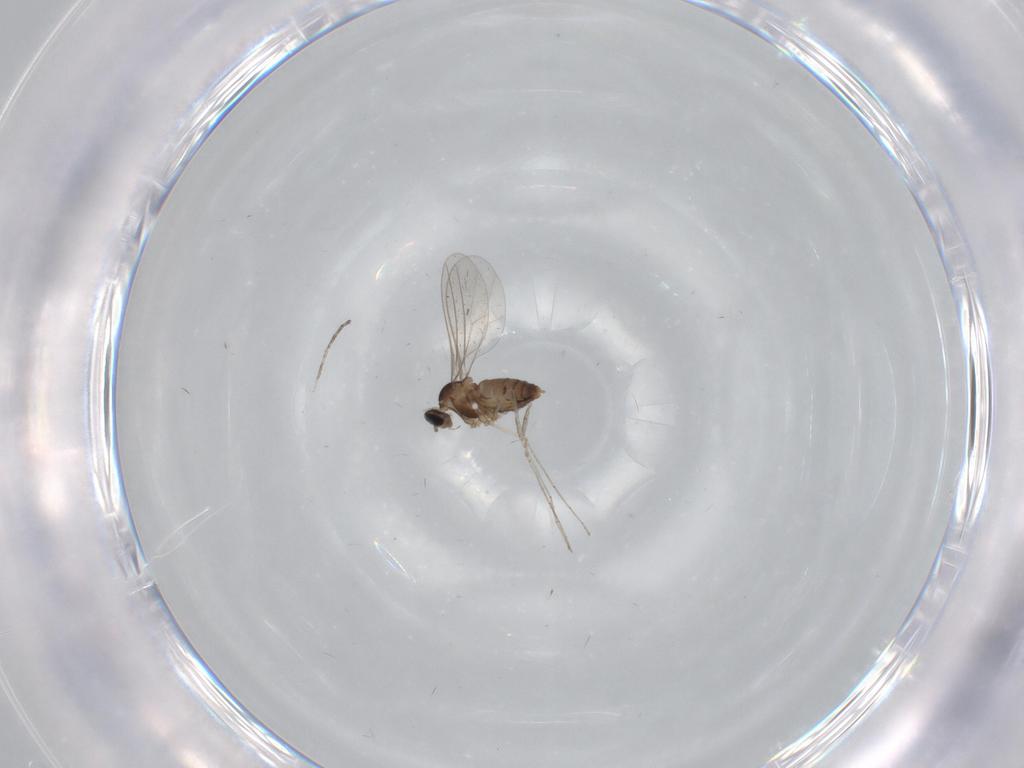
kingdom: Animalia
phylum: Arthropoda
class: Insecta
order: Diptera
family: Cecidomyiidae
